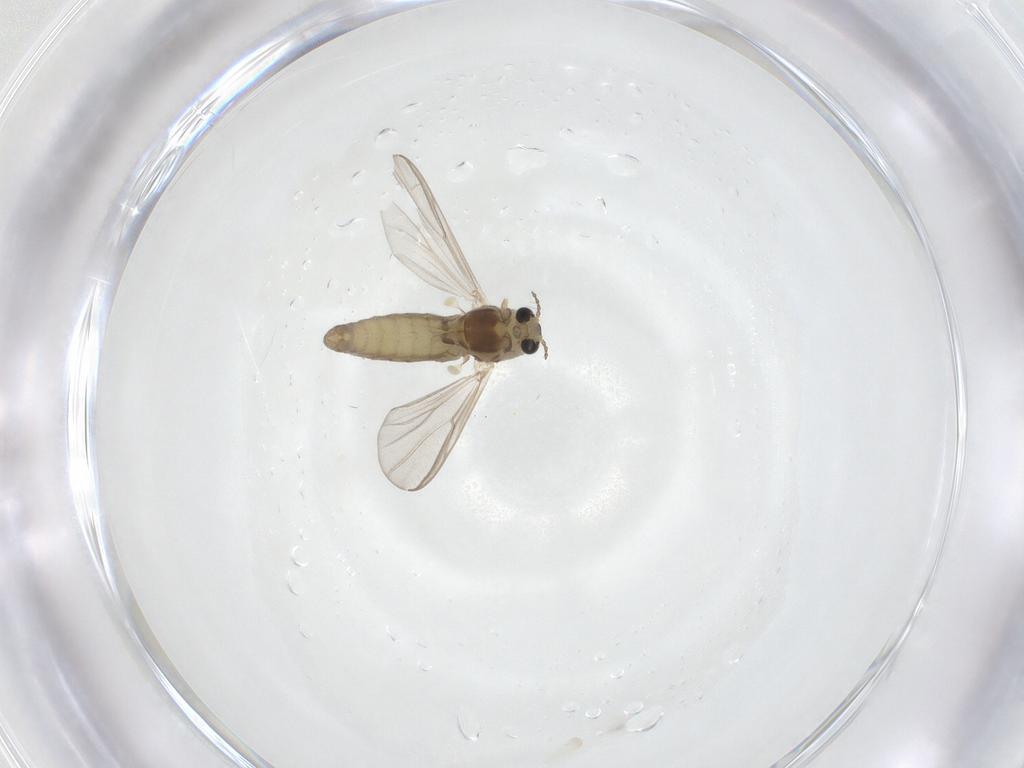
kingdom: Animalia
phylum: Arthropoda
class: Insecta
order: Diptera
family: Chironomidae
